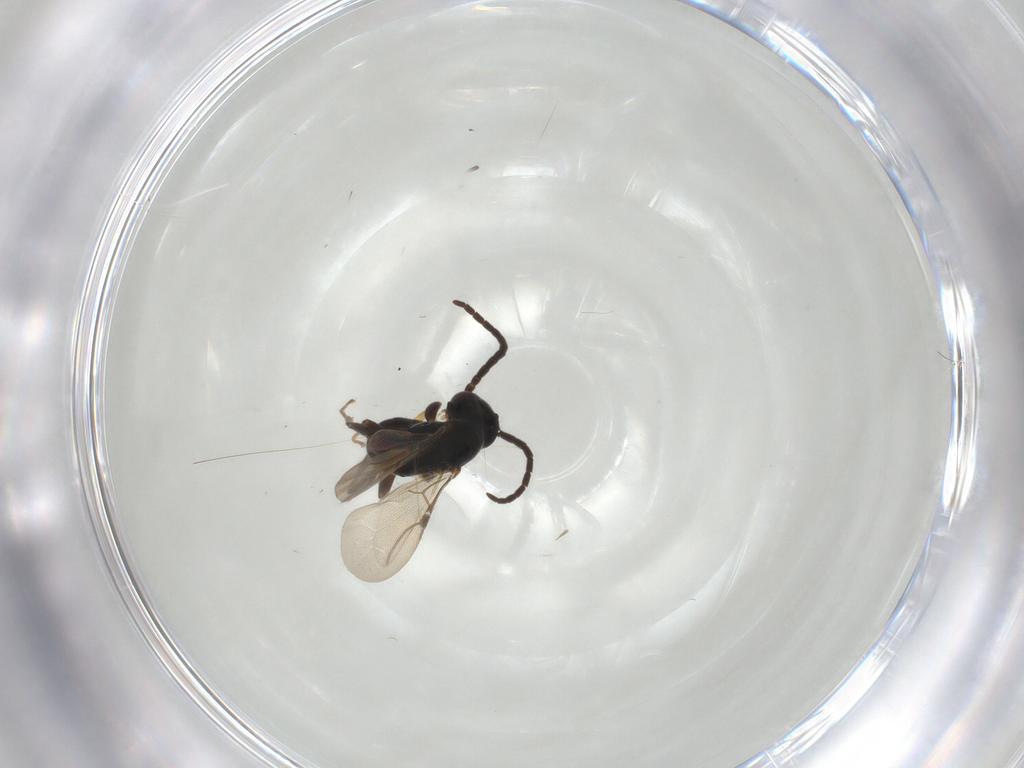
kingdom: Animalia
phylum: Arthropoda
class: Insecta
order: Hymenoptera
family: Bethylidae
